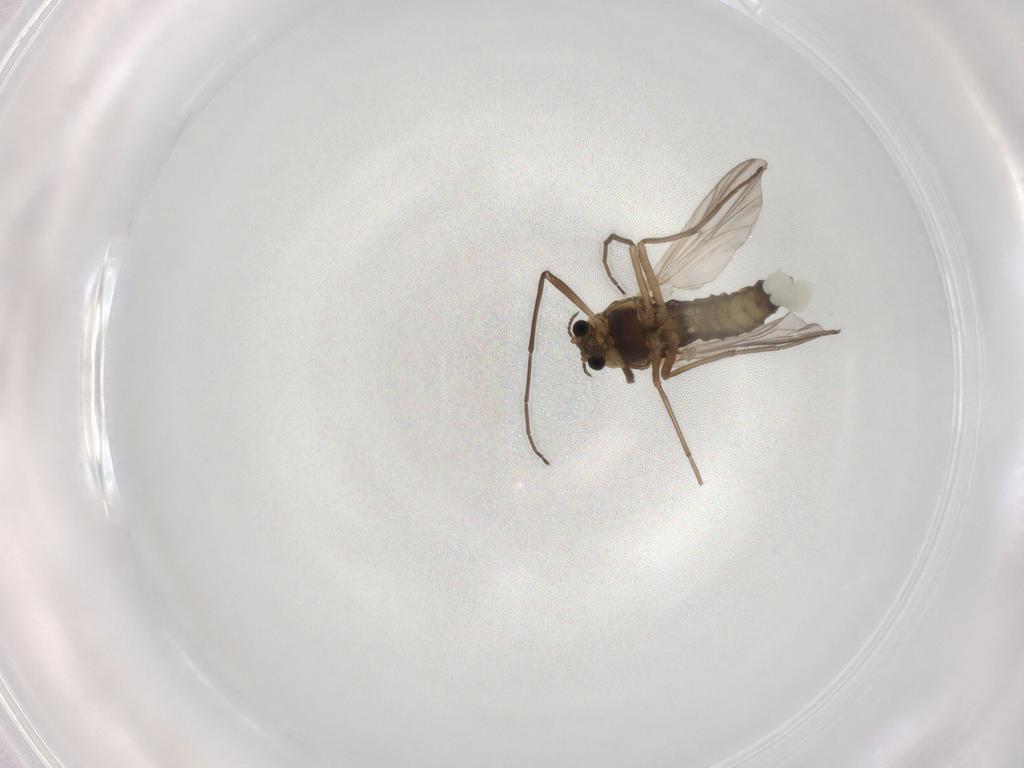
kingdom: Animalia
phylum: Arthropoda
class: Insecta
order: Diptera
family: Chironomidae
